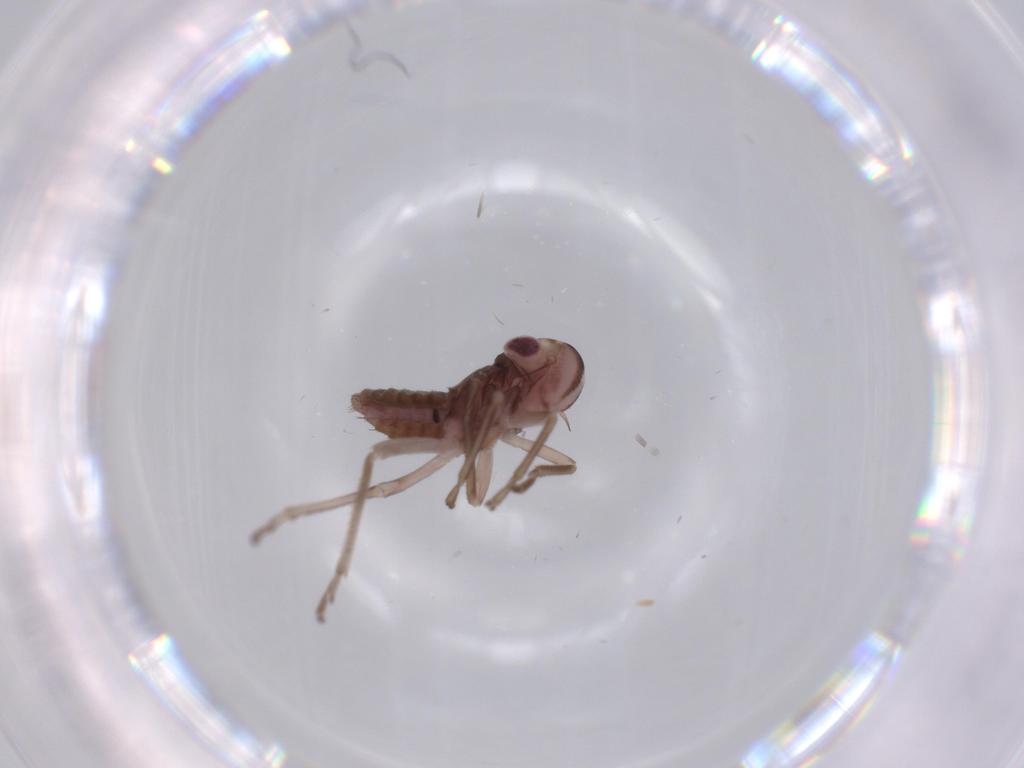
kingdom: Animalia
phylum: Arthropoda
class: Insecta
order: Hemiptera
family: Cicadellidae
